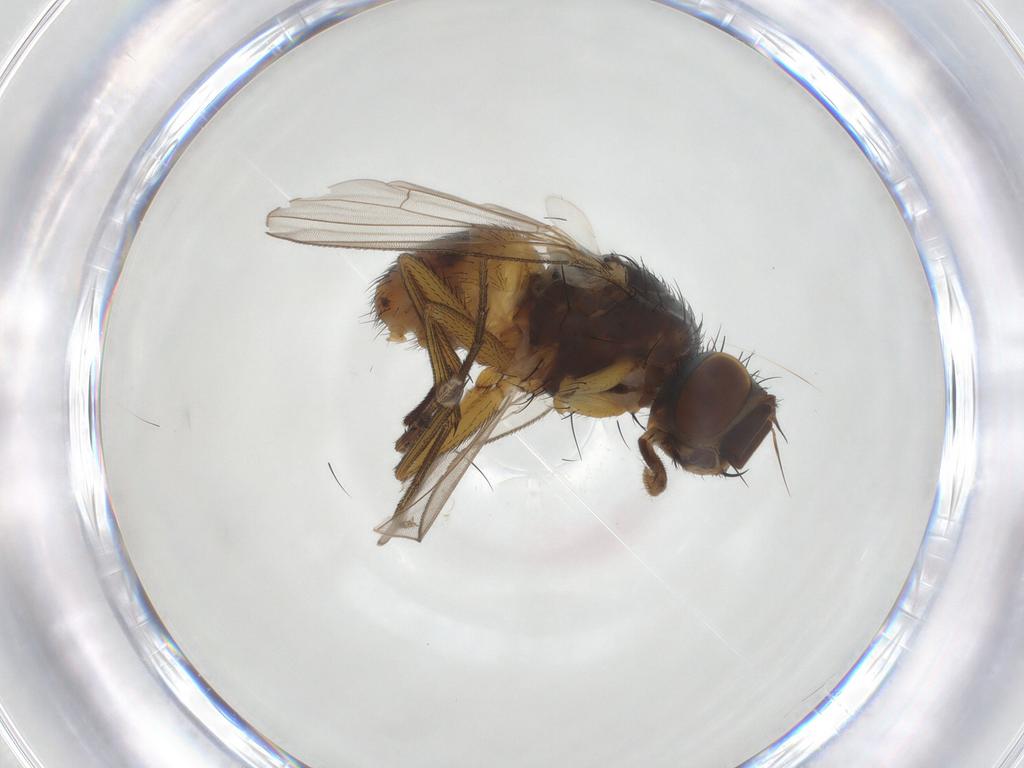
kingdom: Animalia
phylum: Arthropoda
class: Insecta
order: Diptera
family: Muscidae
